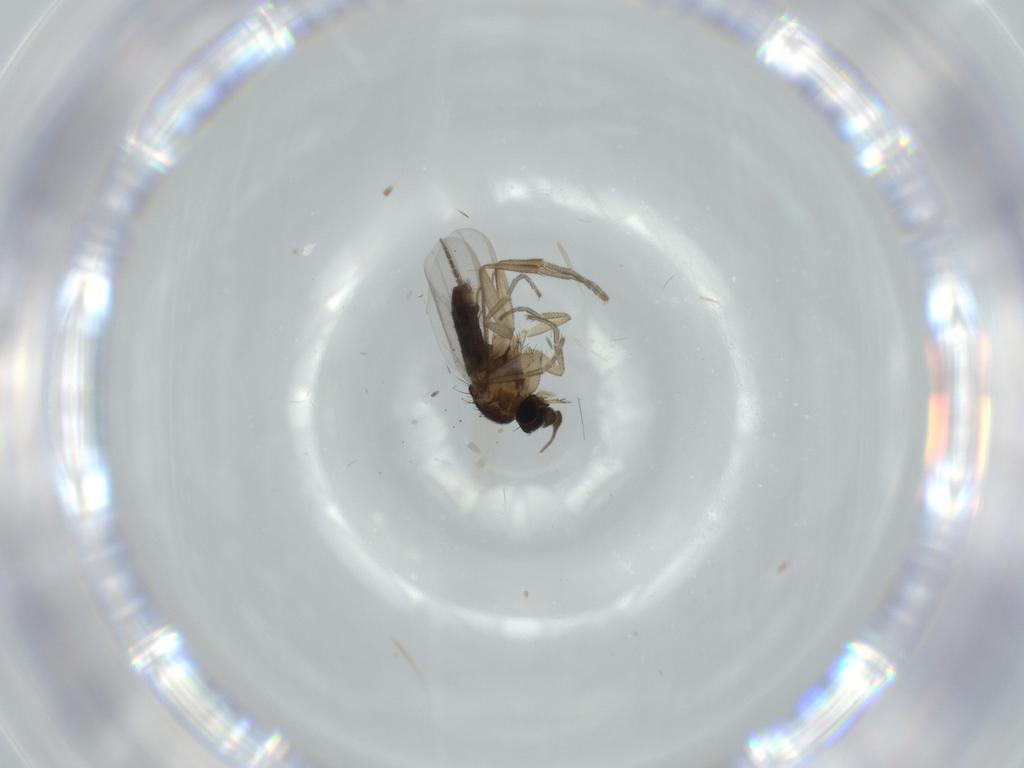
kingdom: Animalia
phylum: Arthropoda
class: Insecta
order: Diptera
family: Sciaridae
